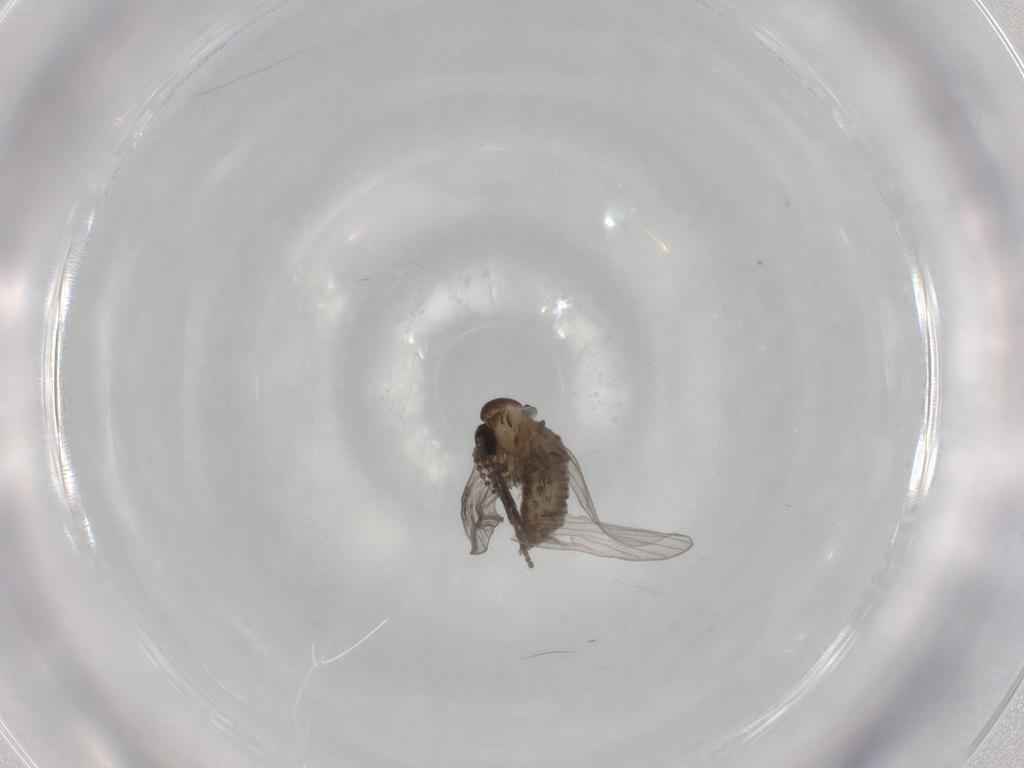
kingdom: Animalia
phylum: Arthropoda
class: Insecta
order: Diptera
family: Psychodidae
